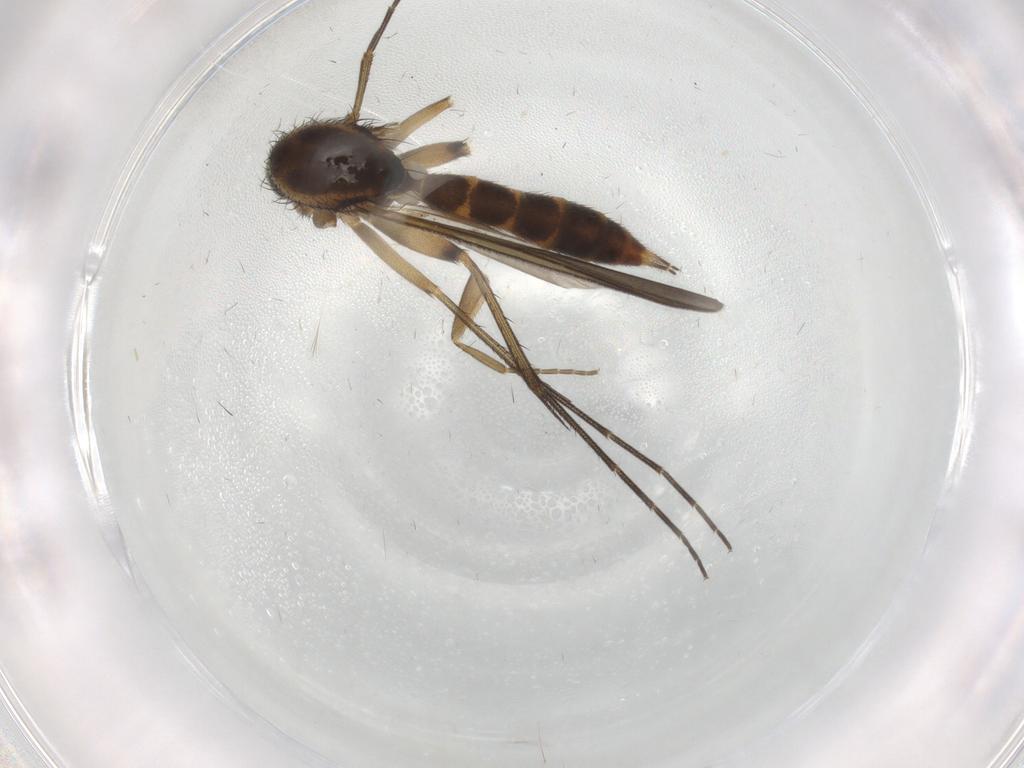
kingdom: Animalia
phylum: Arthropoda
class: Insecta
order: Diptera
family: Mycetophilidae
